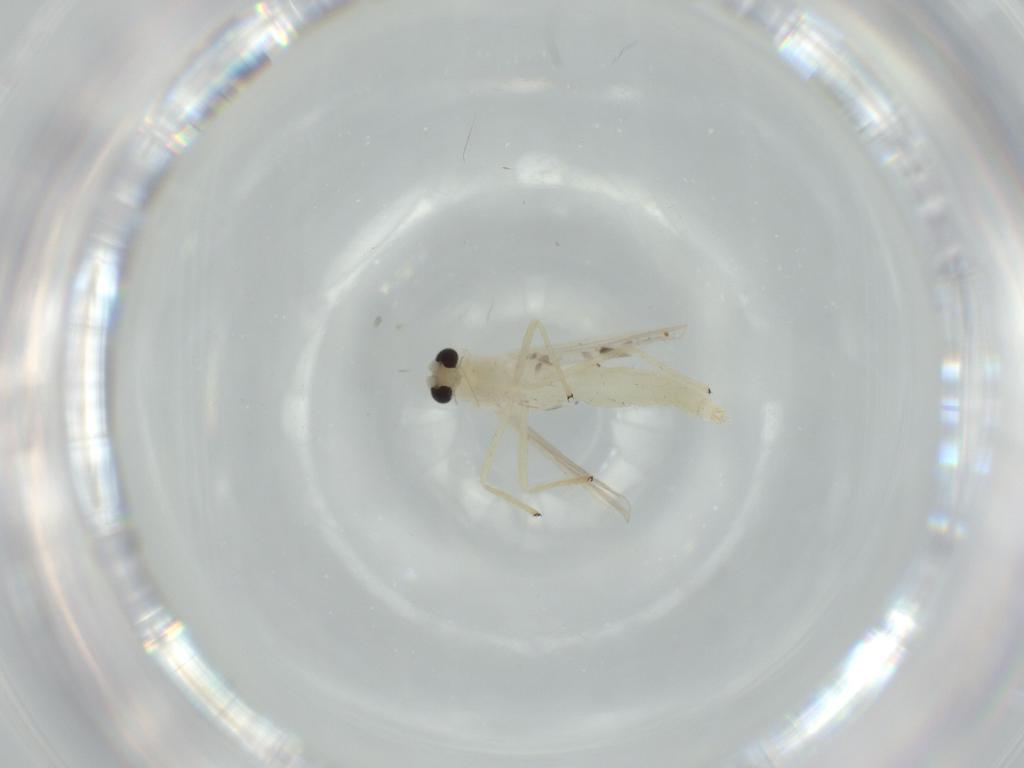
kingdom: Animalia
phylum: Arthropoda
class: Insecta
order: Diptera
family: Chironomidae
